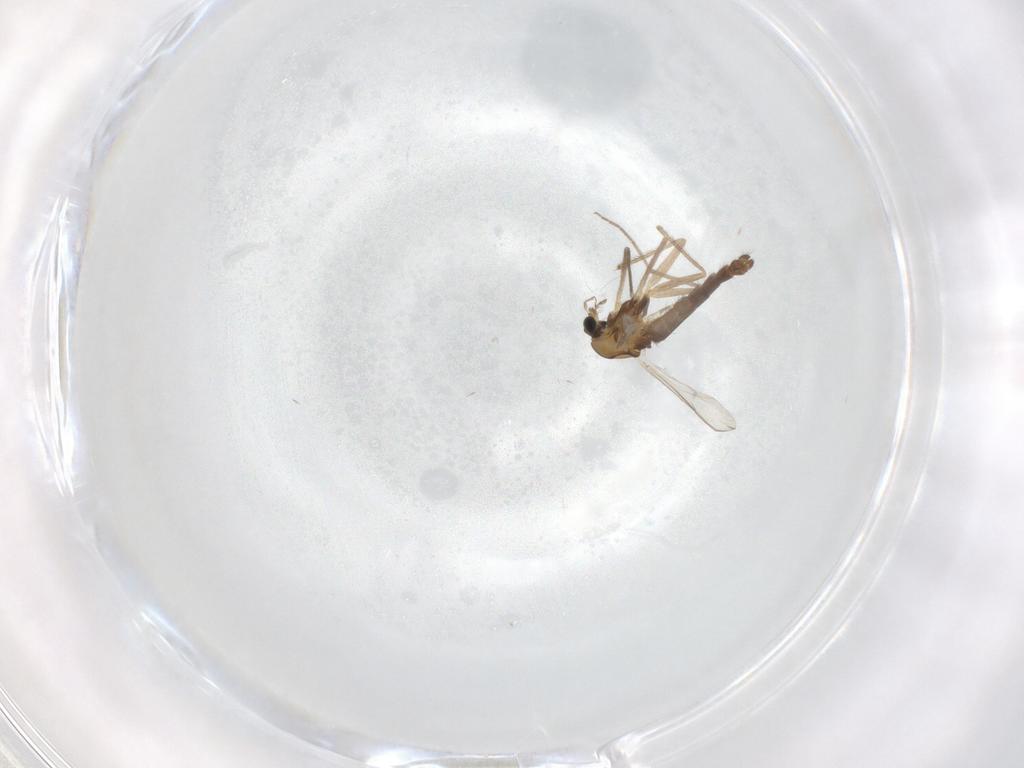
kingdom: Animalia
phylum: Arthropoda
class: Insecta
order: Diptera
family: Chironomidae
